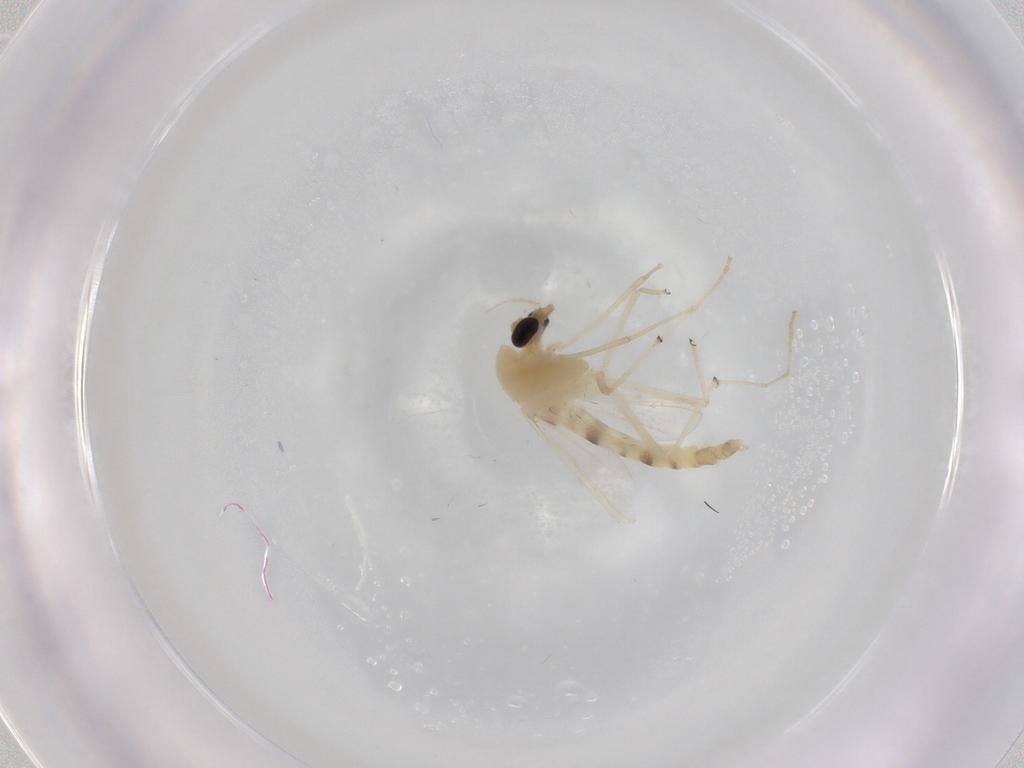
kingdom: Animalia
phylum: Arthropoda
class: Insecta
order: Diptera
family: Chironomidae
